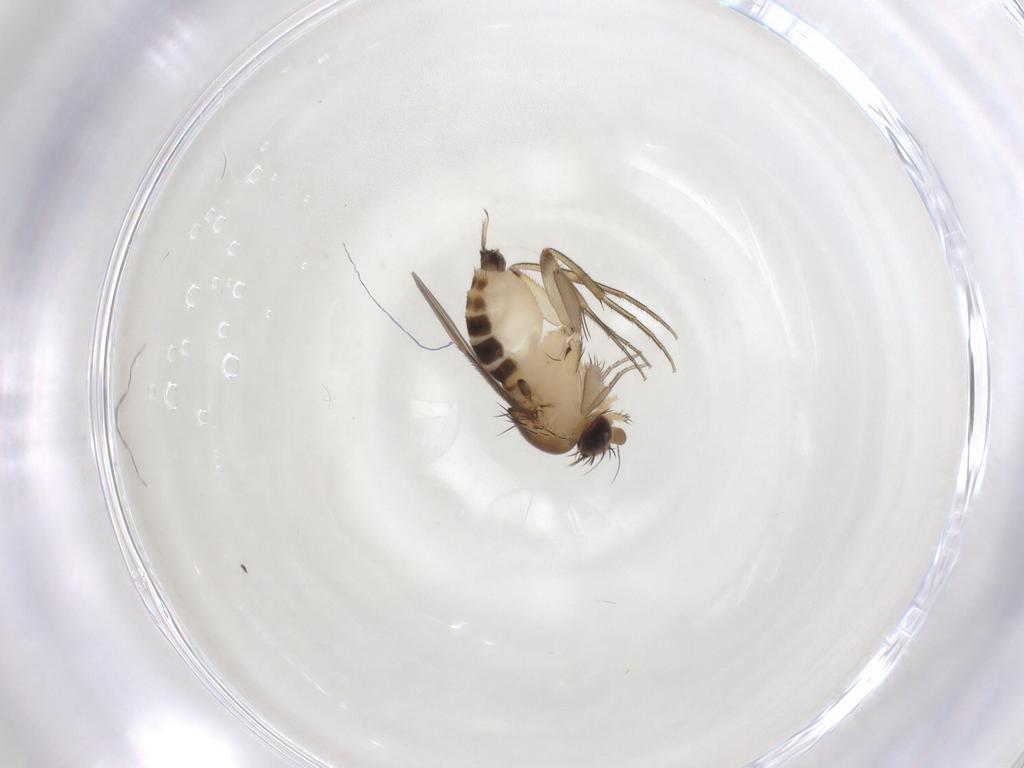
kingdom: Animalia
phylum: Arthropoda
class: Insecta
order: Diptera
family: Phoridae
